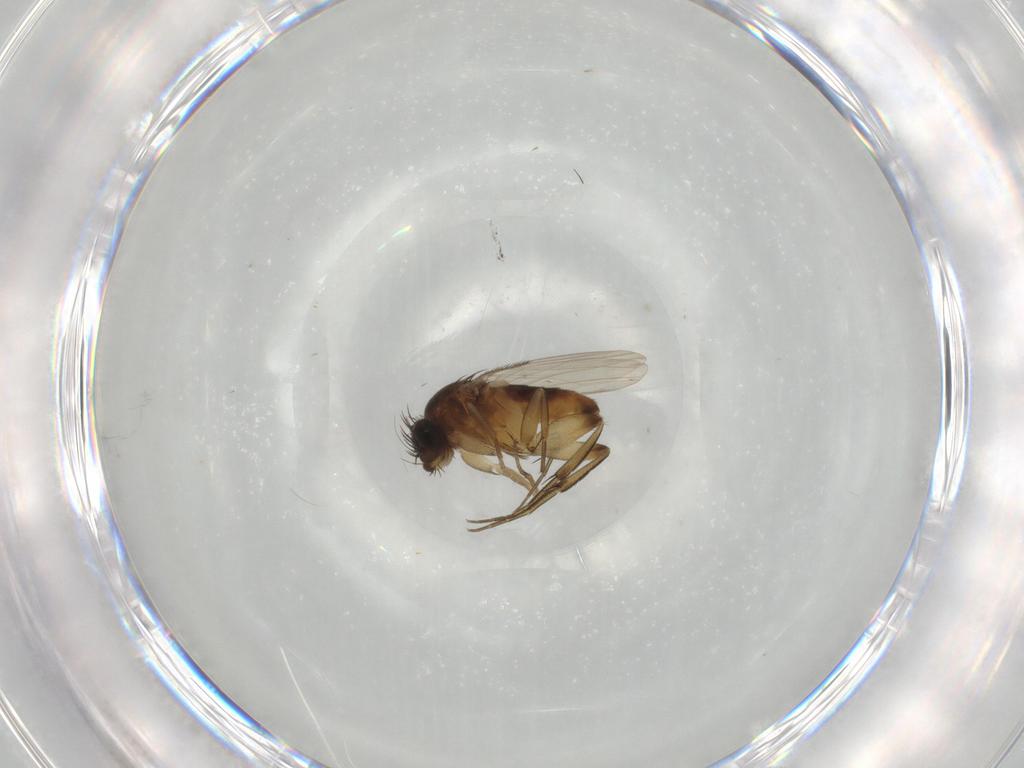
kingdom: Animalia
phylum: Arthropoda
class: Insecta
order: Diptera
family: Phoridae
